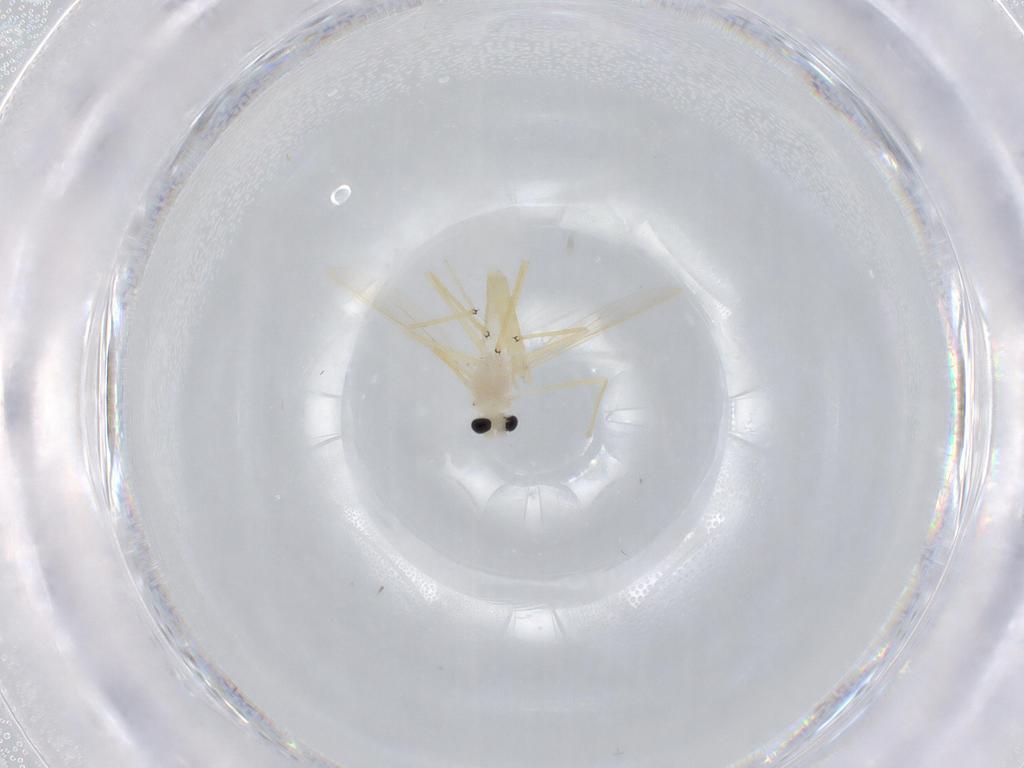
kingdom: Animalia
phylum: Arthropoda
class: Insecta
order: Diptera
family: Chironomidae
